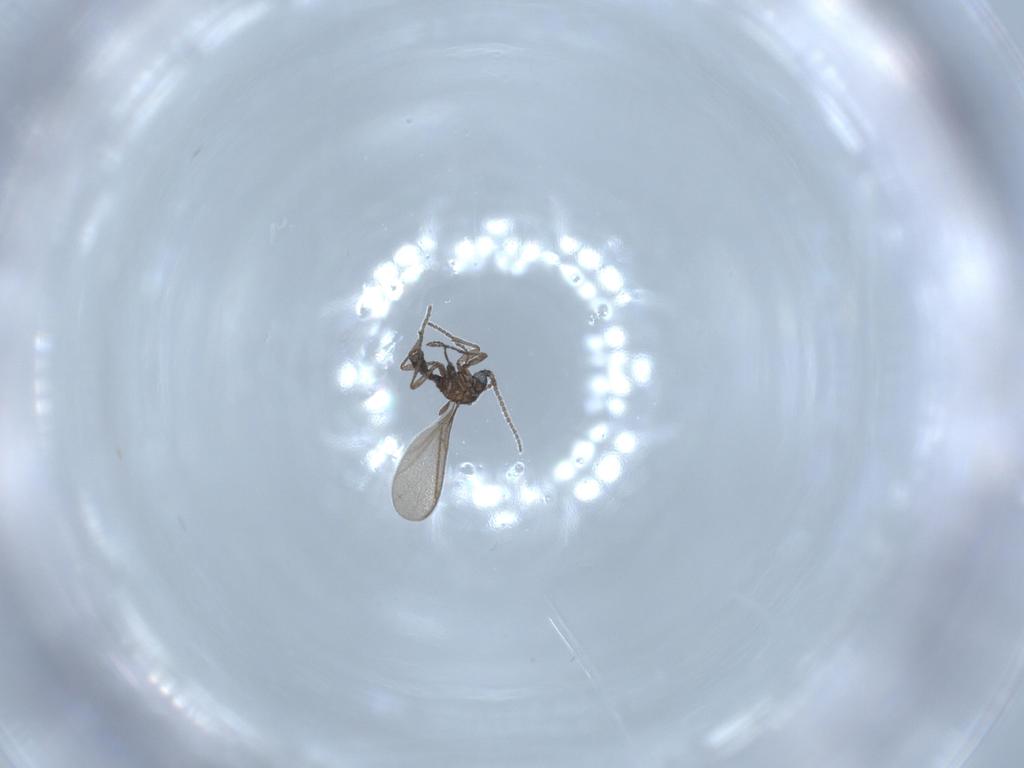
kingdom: Animalia
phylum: Arthropoda
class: Insecta
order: Diptera
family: Chironomidae
